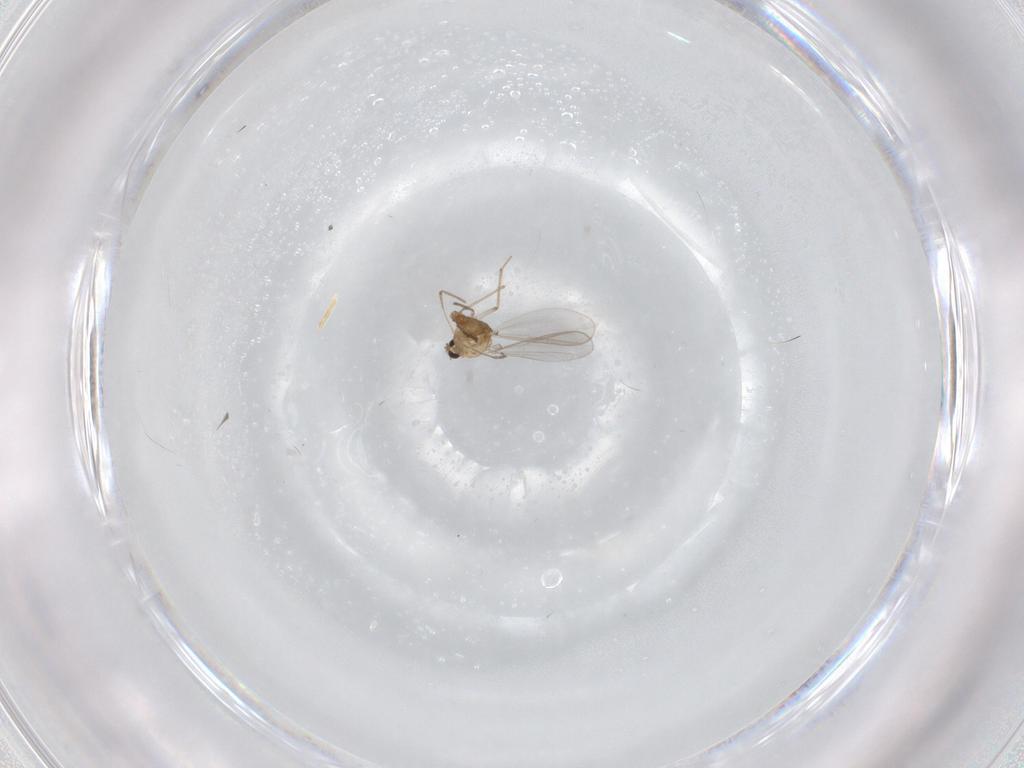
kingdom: Animalia
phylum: Arthropoda
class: Insecta
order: Diptera
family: Chironomidae
